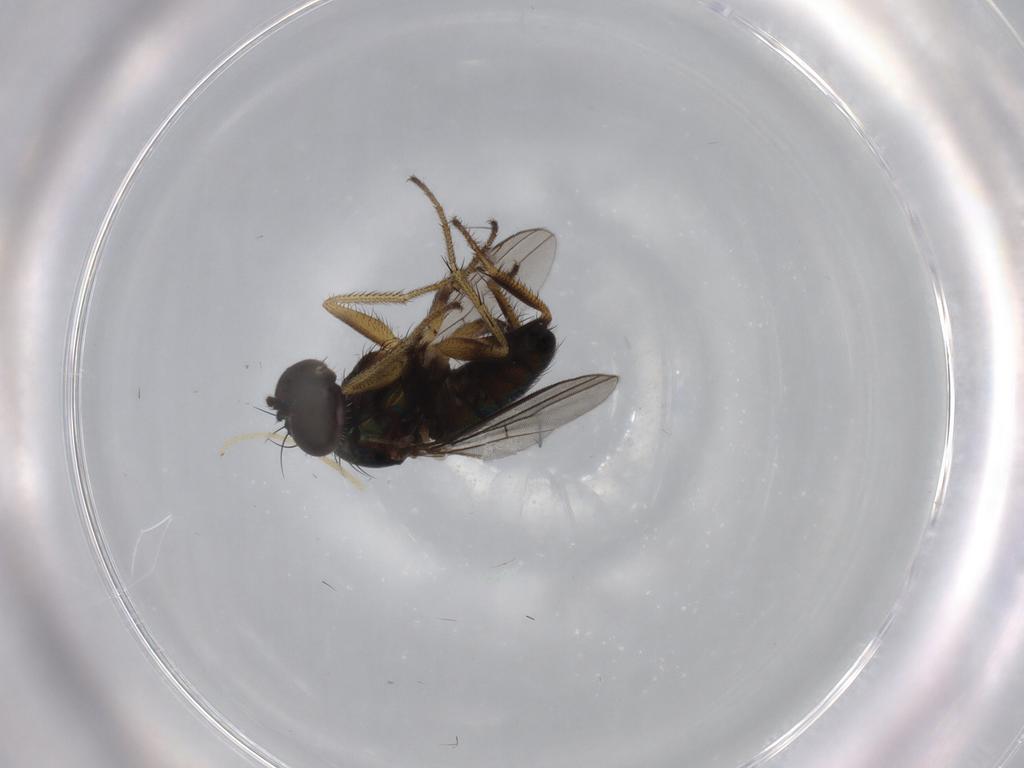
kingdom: Animalia
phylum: Arthropoda
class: Insecta
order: Diptera
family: Dolichopodidae
